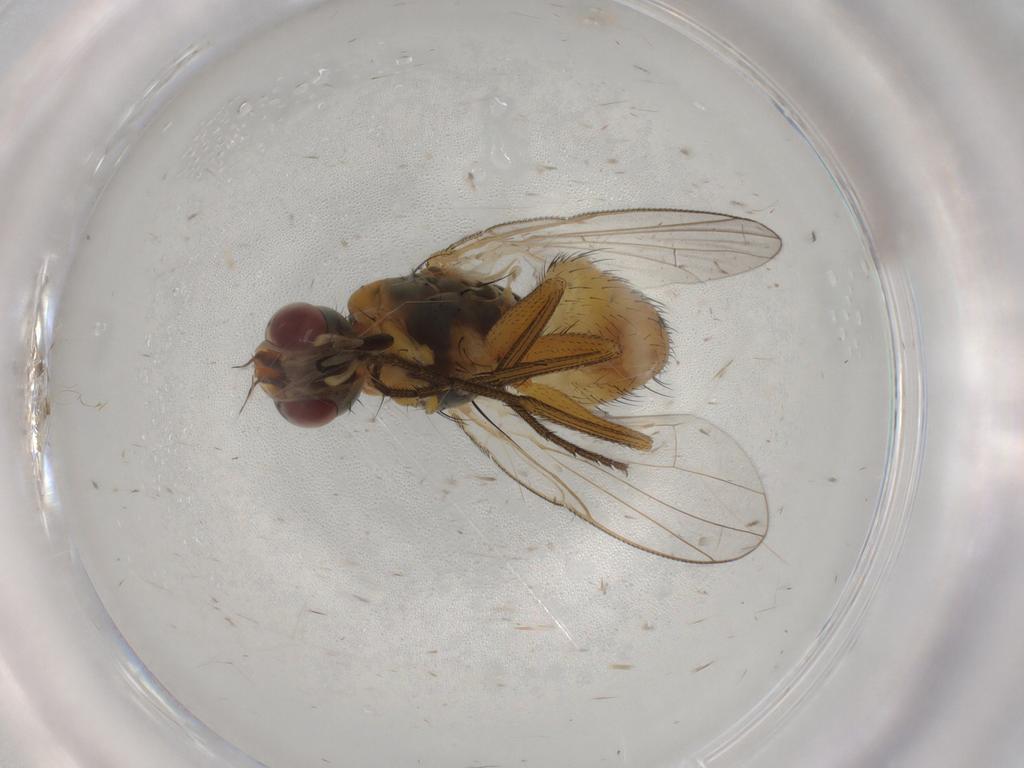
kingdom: Animalia
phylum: Arthropoda
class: Insecta
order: Diptera
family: Muscidae
